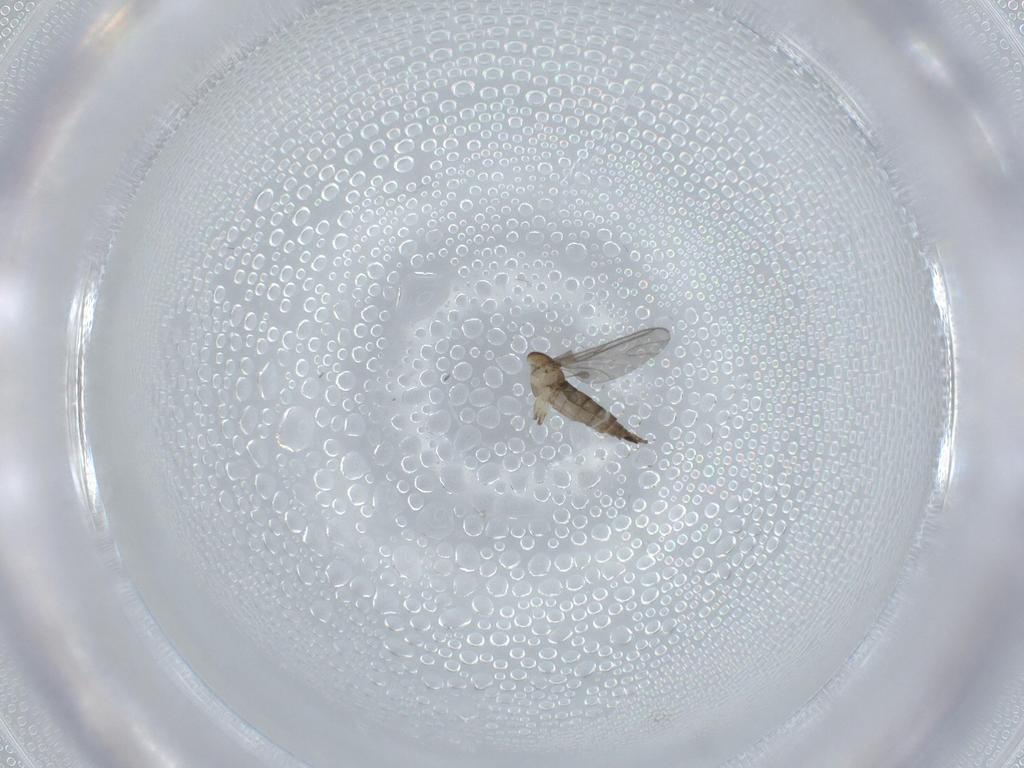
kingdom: Animalia
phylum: Arthropoda
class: Insecta
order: Diptera
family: Sciaridae
